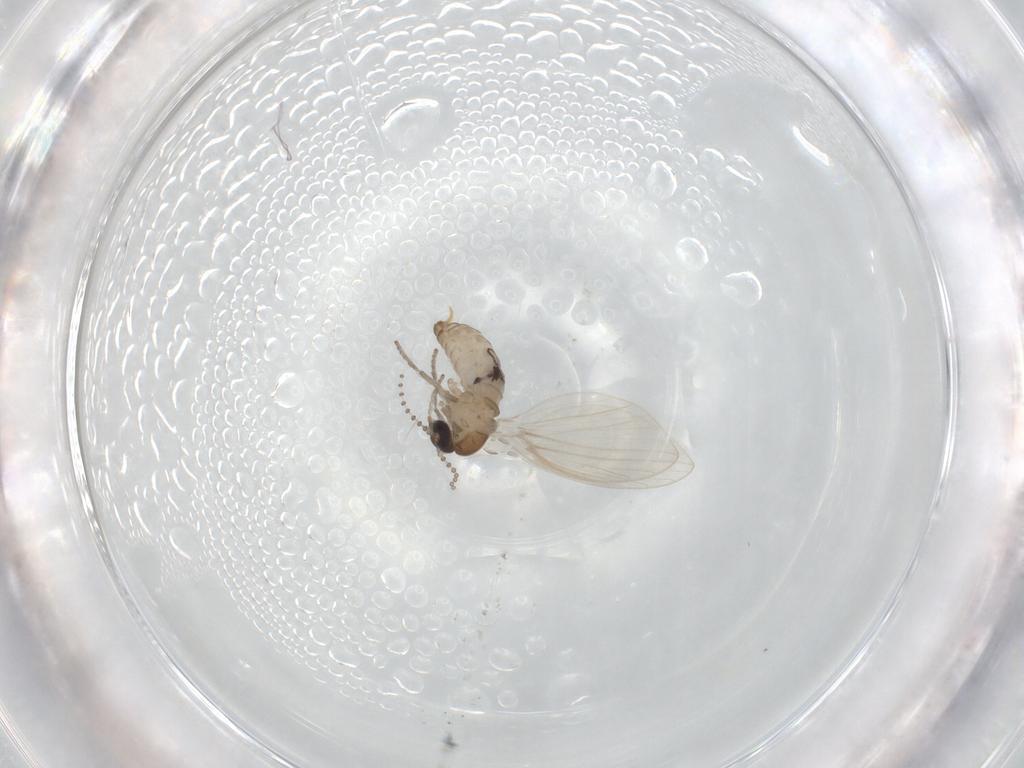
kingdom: Animalia
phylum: Arthropoda
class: Insecta
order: Diptera
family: Psychodidae
